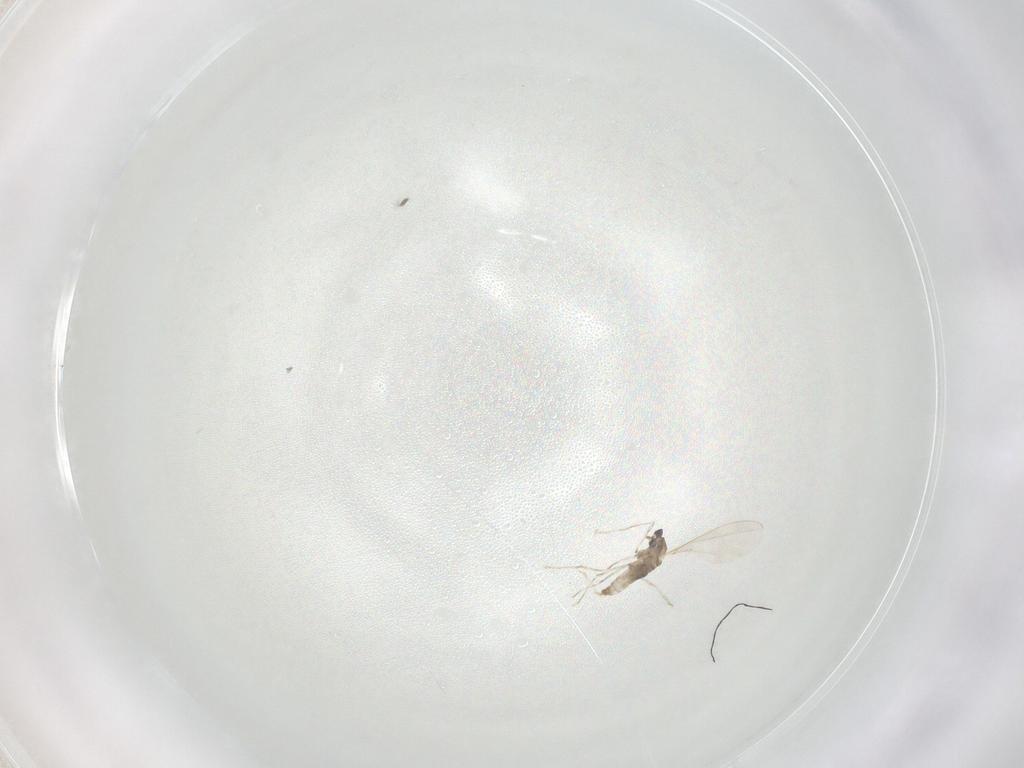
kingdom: Animalia
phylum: Arthropoda
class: Insecta
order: Diptera
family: Cecidomyiidae
